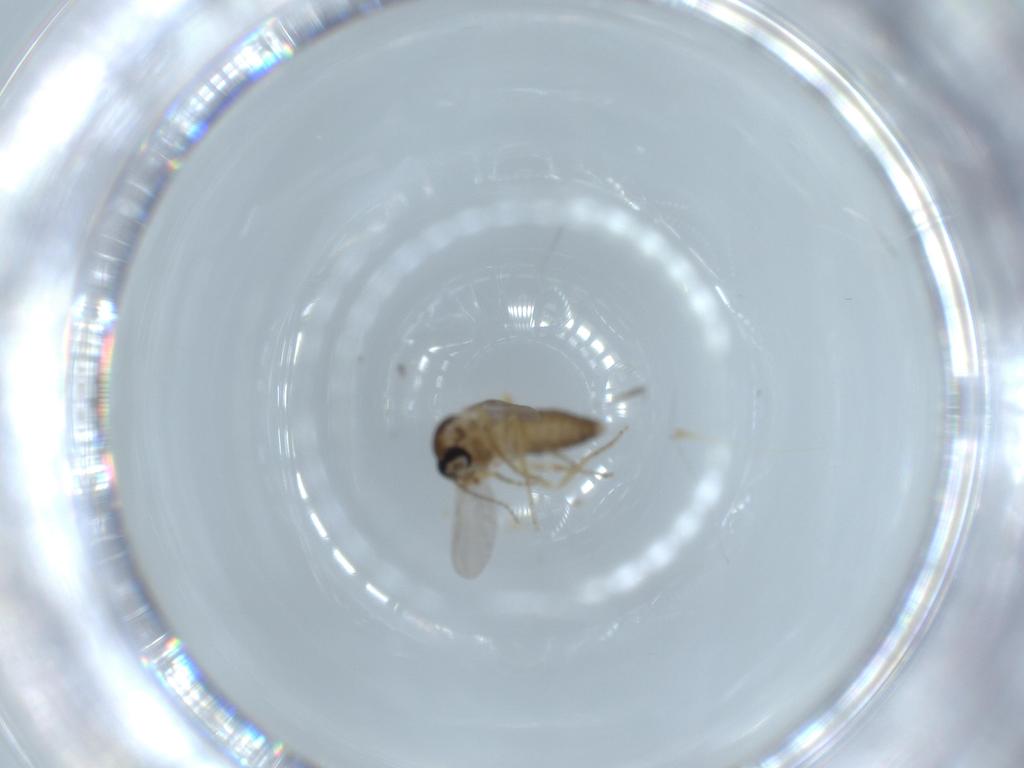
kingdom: Animalia
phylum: Arthropoda
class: Insecta
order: Diptera
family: Ceratopogonidae
